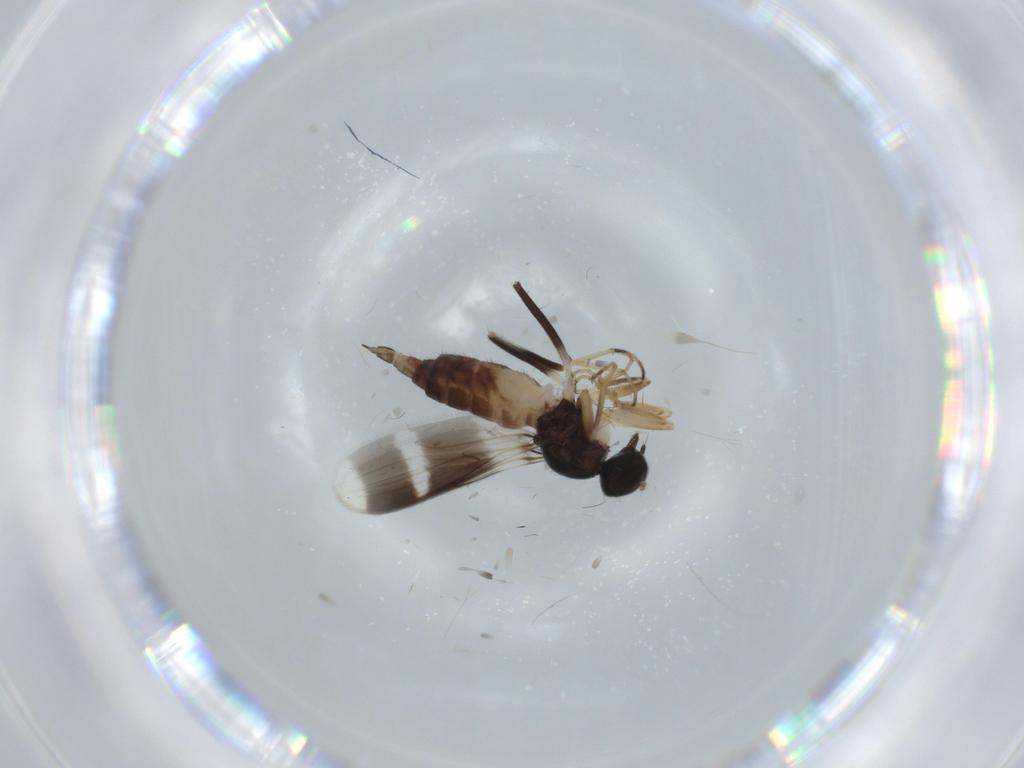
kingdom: Animalia
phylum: Arthropoda
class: Insecta
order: Diptera
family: Hybotidae
